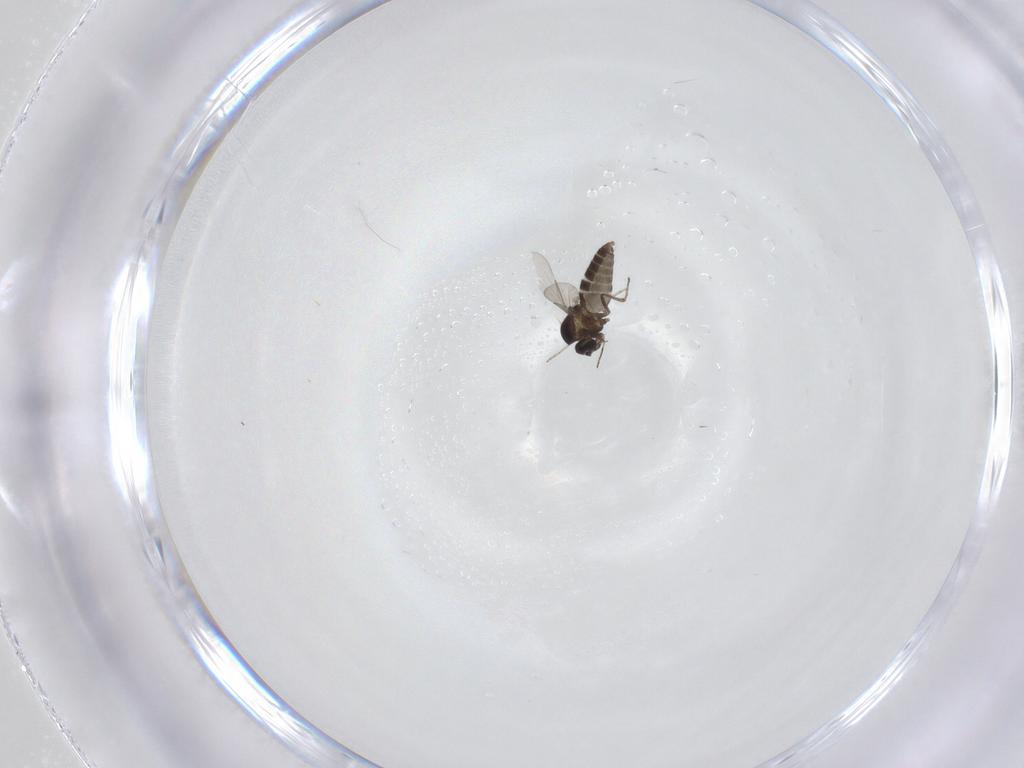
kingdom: Animalia
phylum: Arthropoda
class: Insecta
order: Diptera
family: Ceratopogonidae
